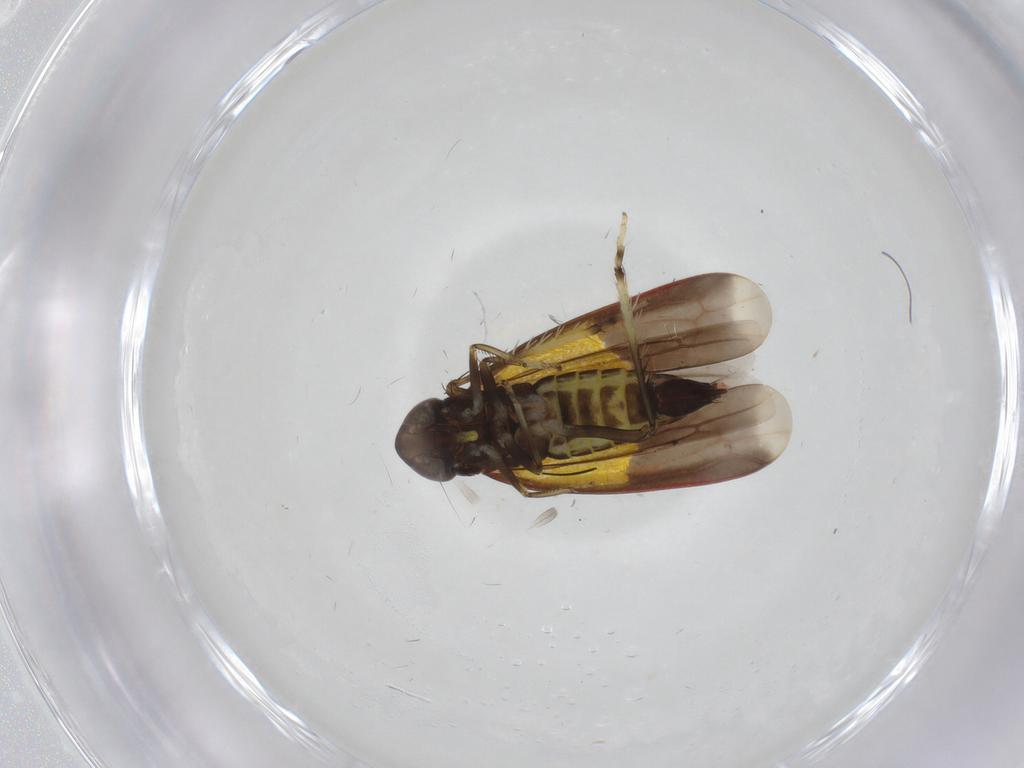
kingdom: Animalia
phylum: Arthropoda
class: Insecta
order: Hemiptera
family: Cicadellidae
